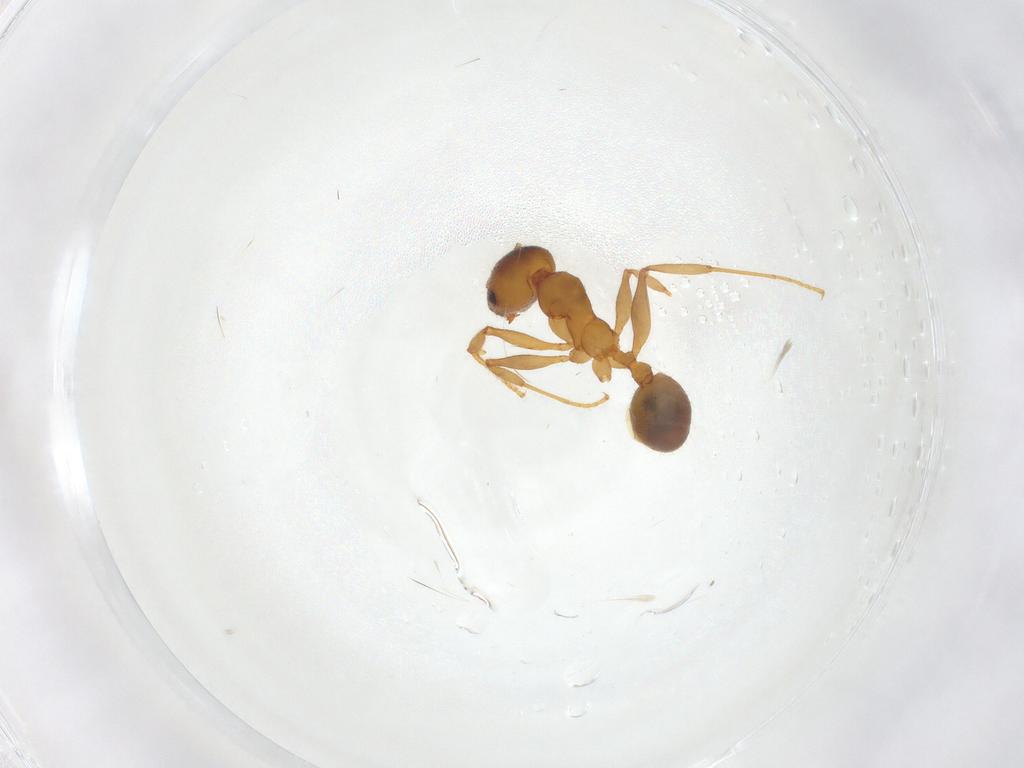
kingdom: Animalia
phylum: Arthropoda
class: Insecta
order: Hymenoptera
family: Formicidae
